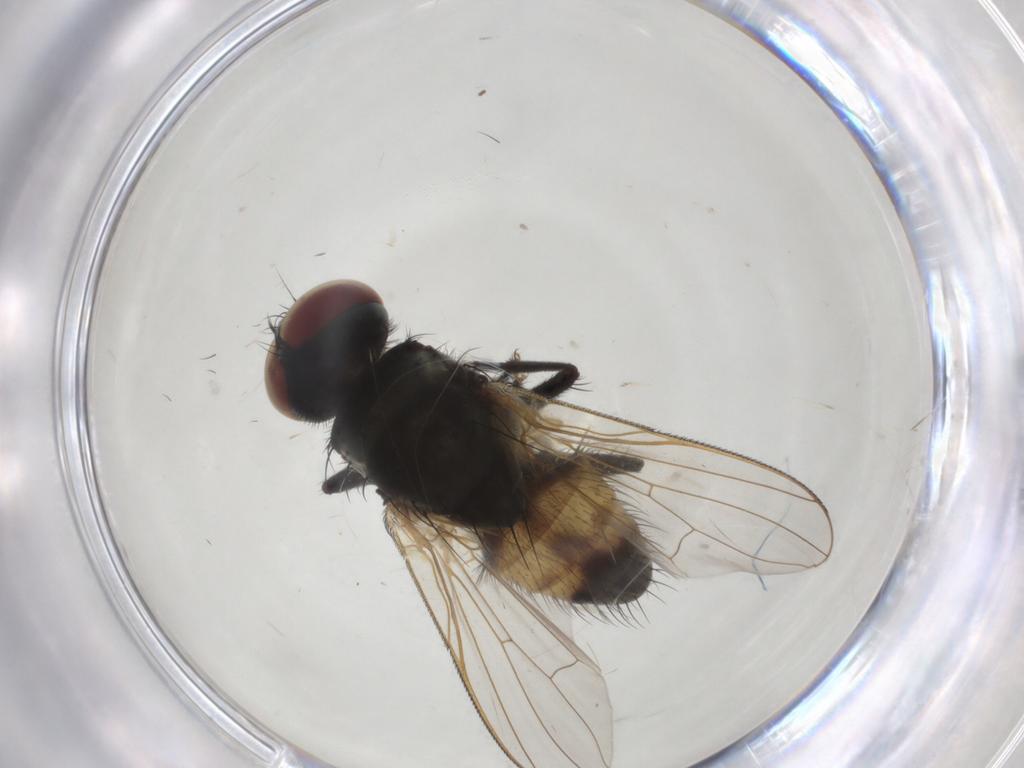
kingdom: Animalia
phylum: Arthropoda
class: Insecta
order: Diptera
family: Muscidae
